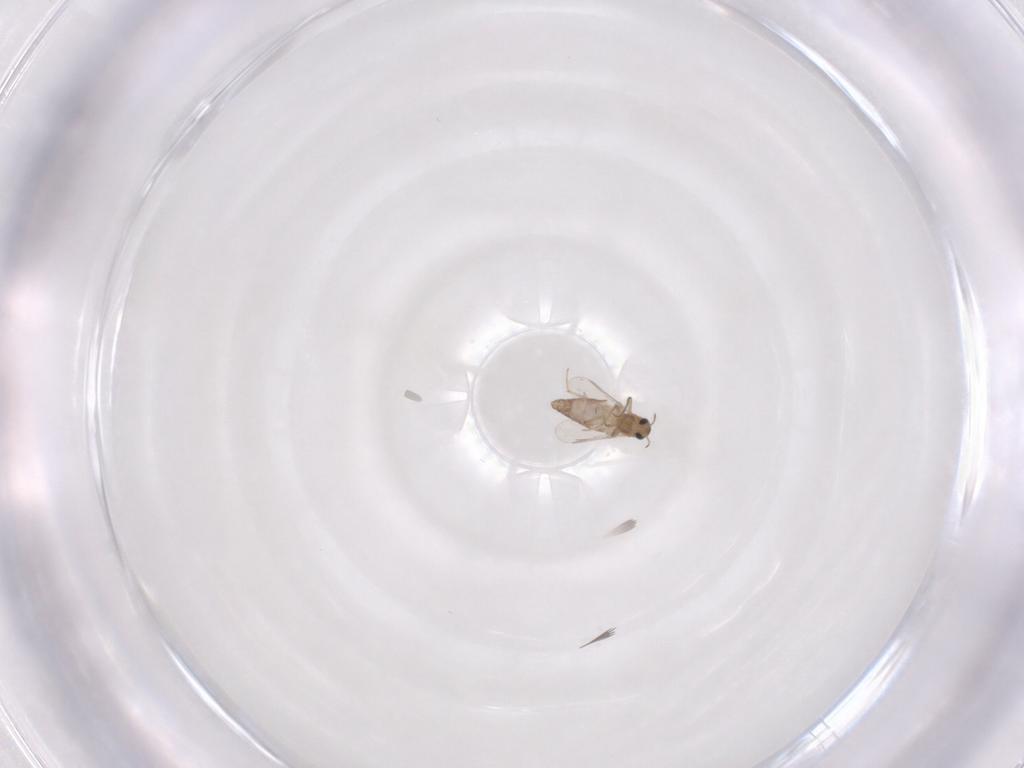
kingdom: Animalia
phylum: Arthropoda
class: Insecta
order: Diptera
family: Chironomidae
